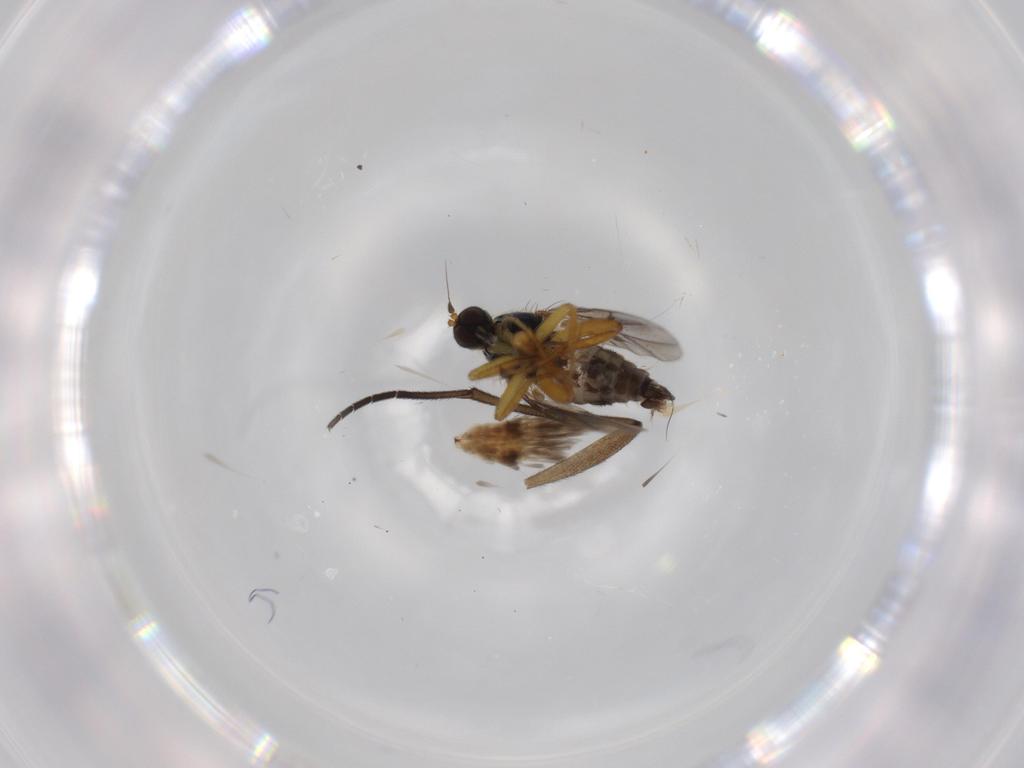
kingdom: Animalia
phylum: Arthropoda
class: Insecta
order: Diptera
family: Hybotidae
